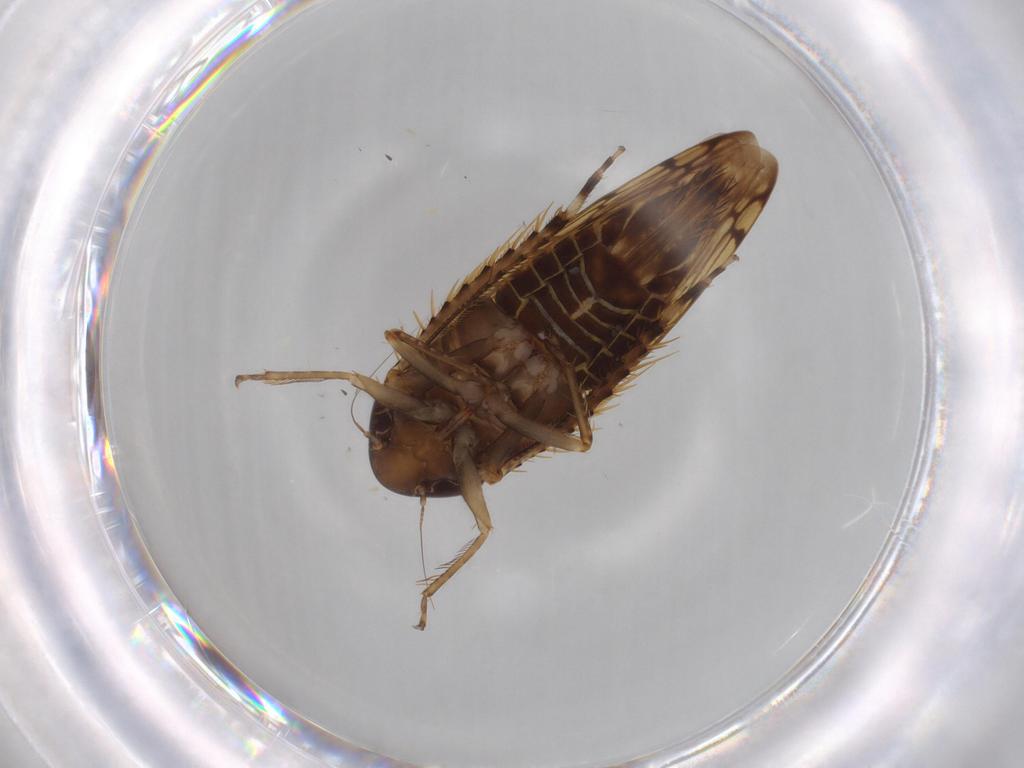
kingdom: Animalia
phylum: Arthropoda
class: Insecta
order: Hemiptera
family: Cicadellidae
